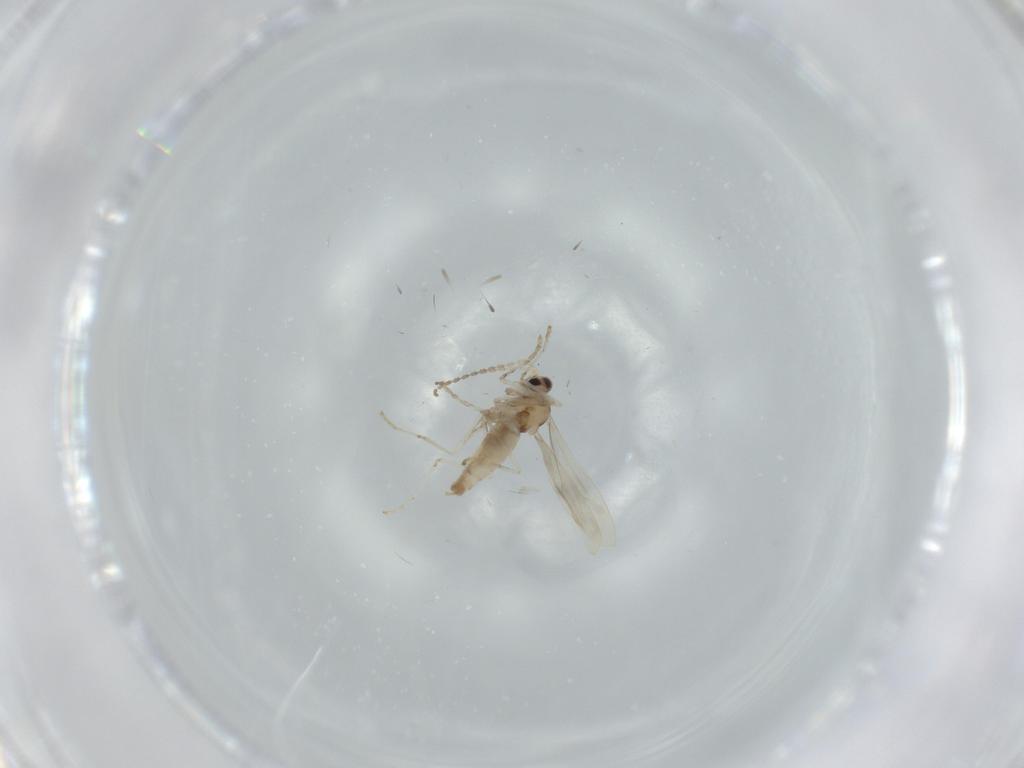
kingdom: Animalia
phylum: Arthropoda
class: Insecta
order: Diptera
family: Cecidomyiidae
